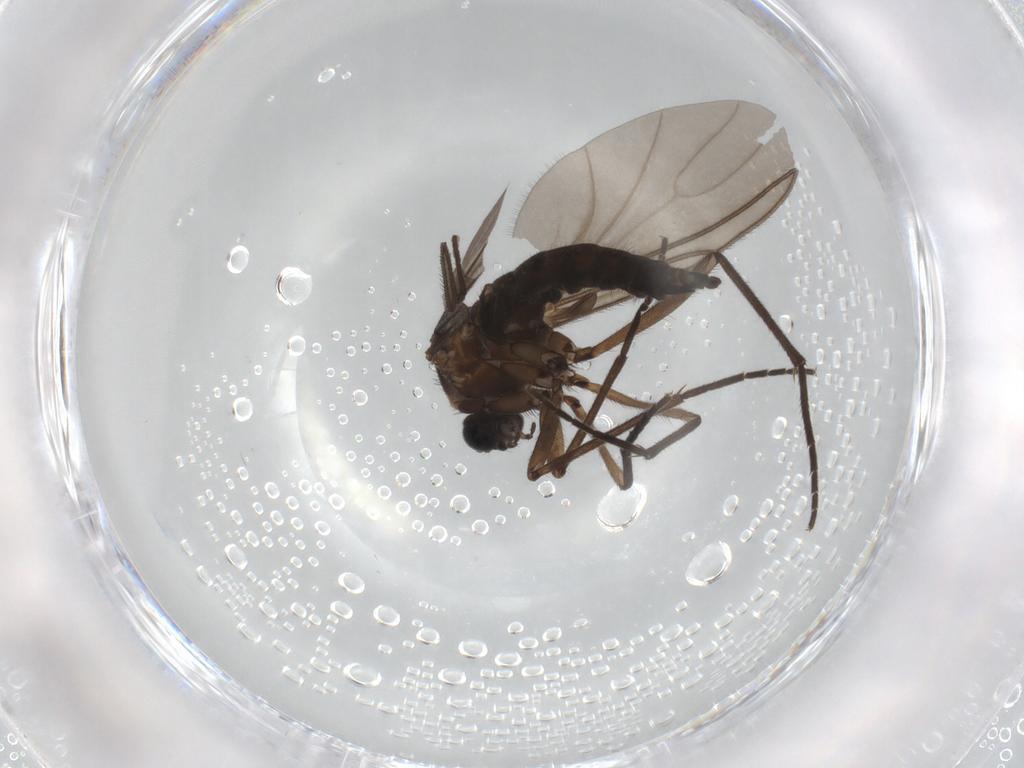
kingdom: Animalia
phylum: Arthropoda
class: Insecta
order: Diptera
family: Sciaridae
